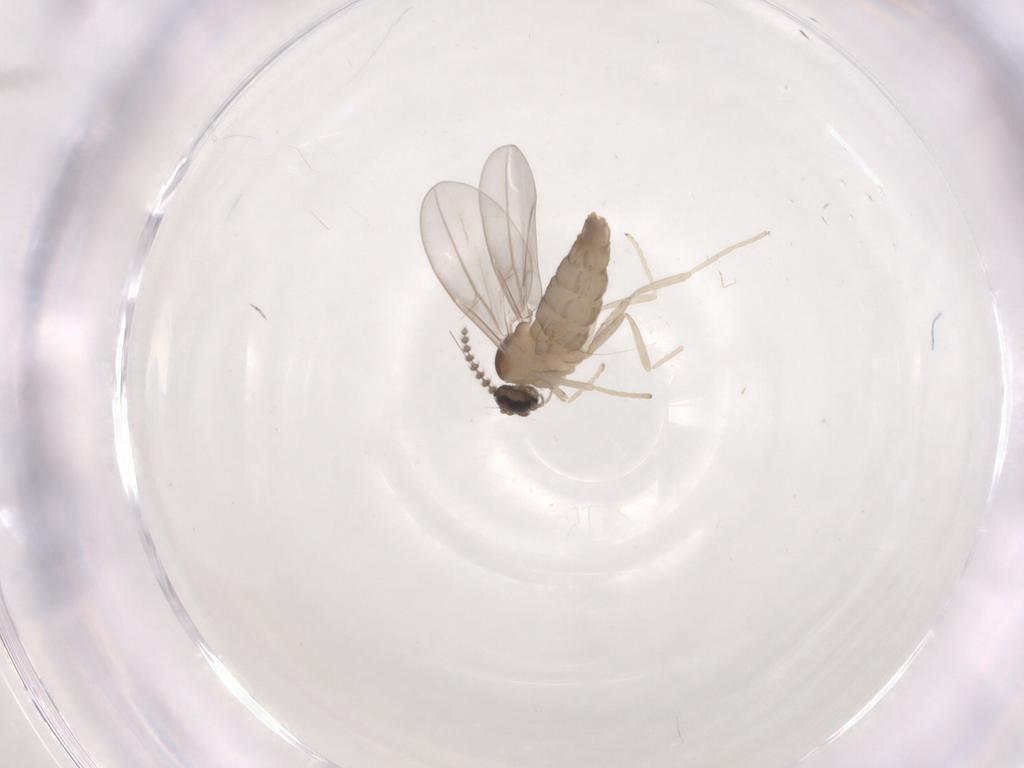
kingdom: Animalia
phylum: Arthropoda
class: Insecta
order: Diptera
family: Cecidomyiidae
